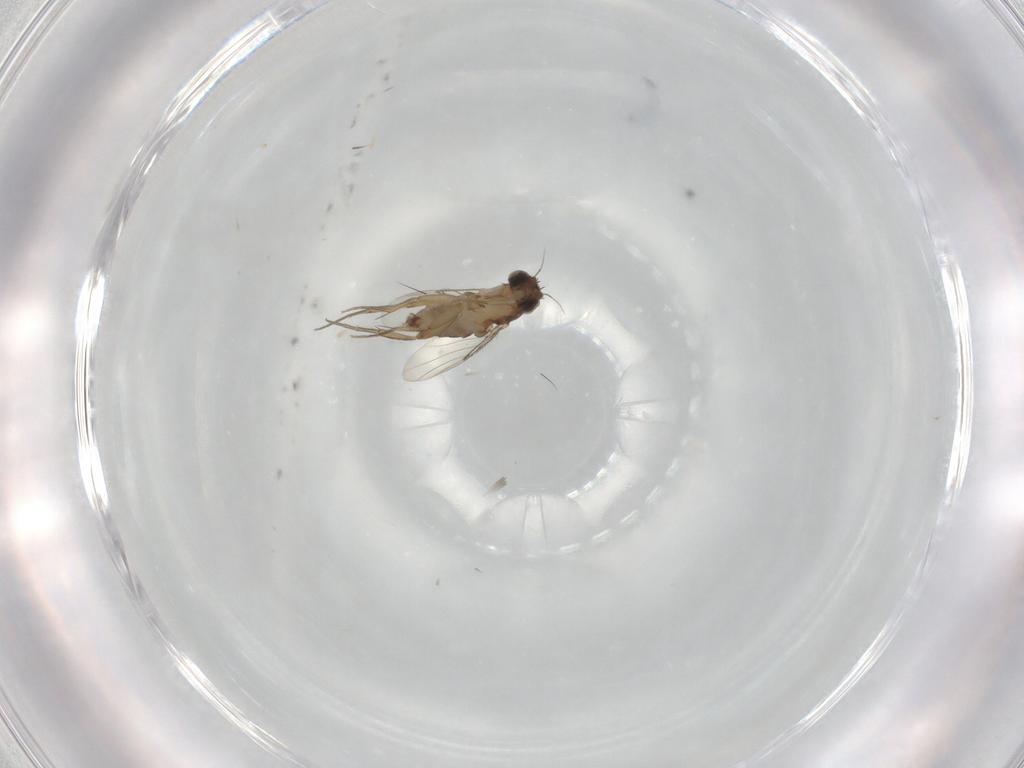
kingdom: Animalia
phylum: Arthropoda
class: Insecta
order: Diptera
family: Phoridae
